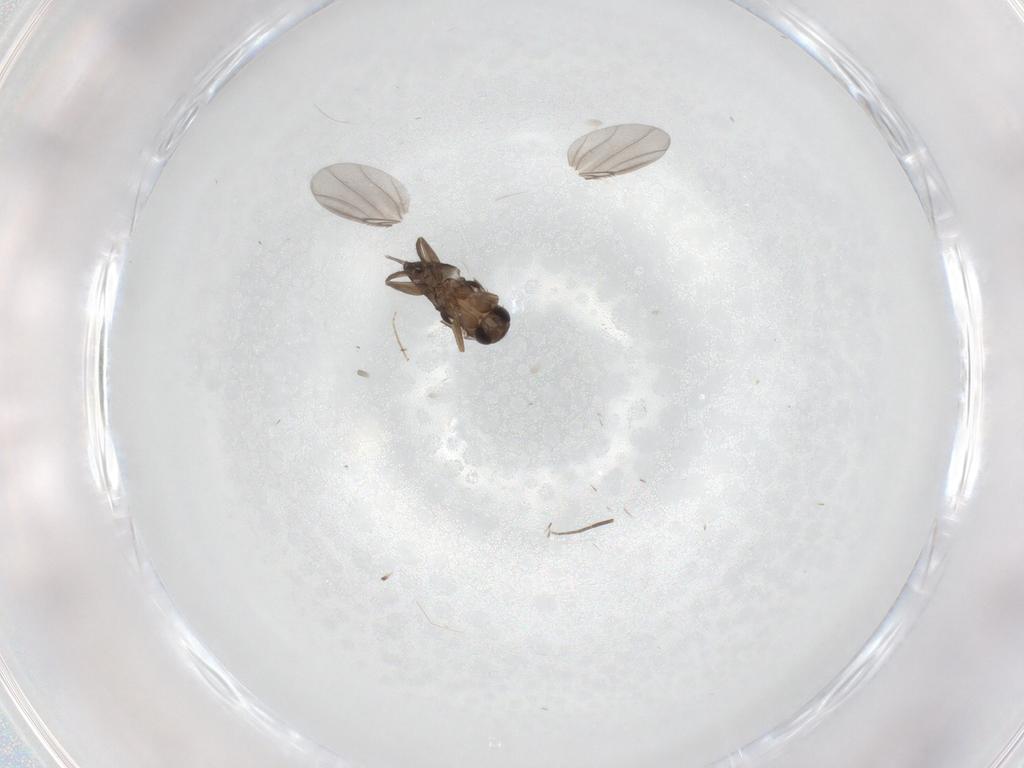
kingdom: Animalia
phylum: Arthropoda
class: Insecta
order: Diptera
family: Phoridae
